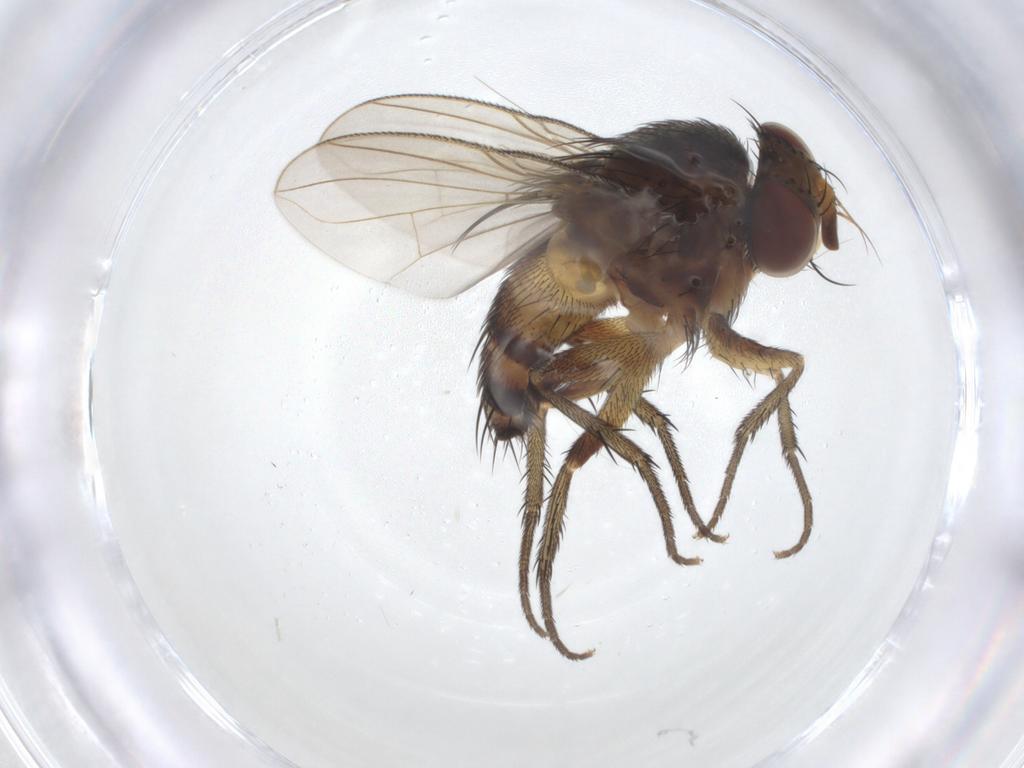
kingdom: Animalia
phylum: Arthropoda
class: Insecta
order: Diptera
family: Tachinidae
